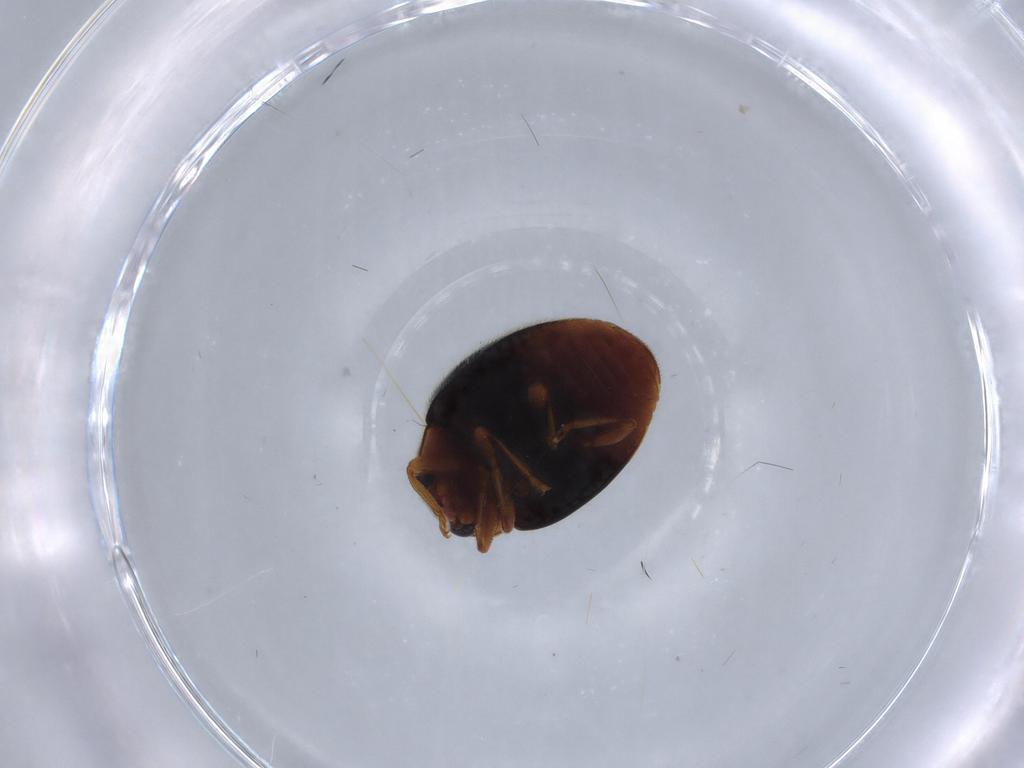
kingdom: Animalia
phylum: Arthropoda
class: Insecta
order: Coleoptera
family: Coccinellidae
